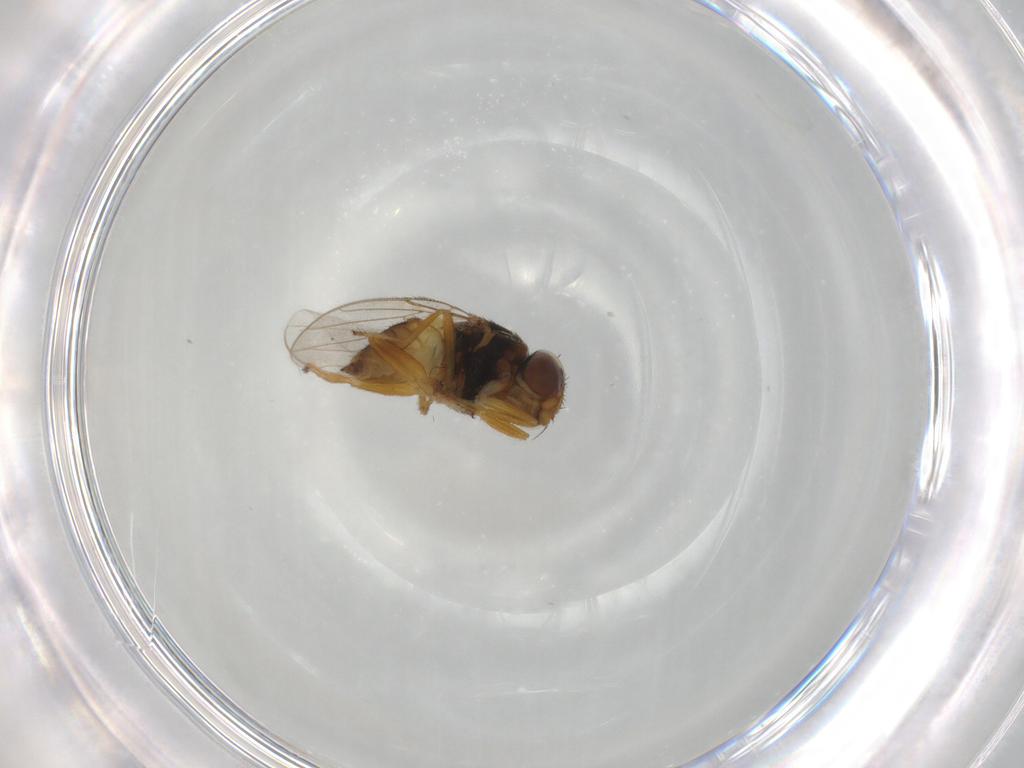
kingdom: Animalia
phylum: Arthropoda
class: Insecta
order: Diptera
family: Chloropidae
